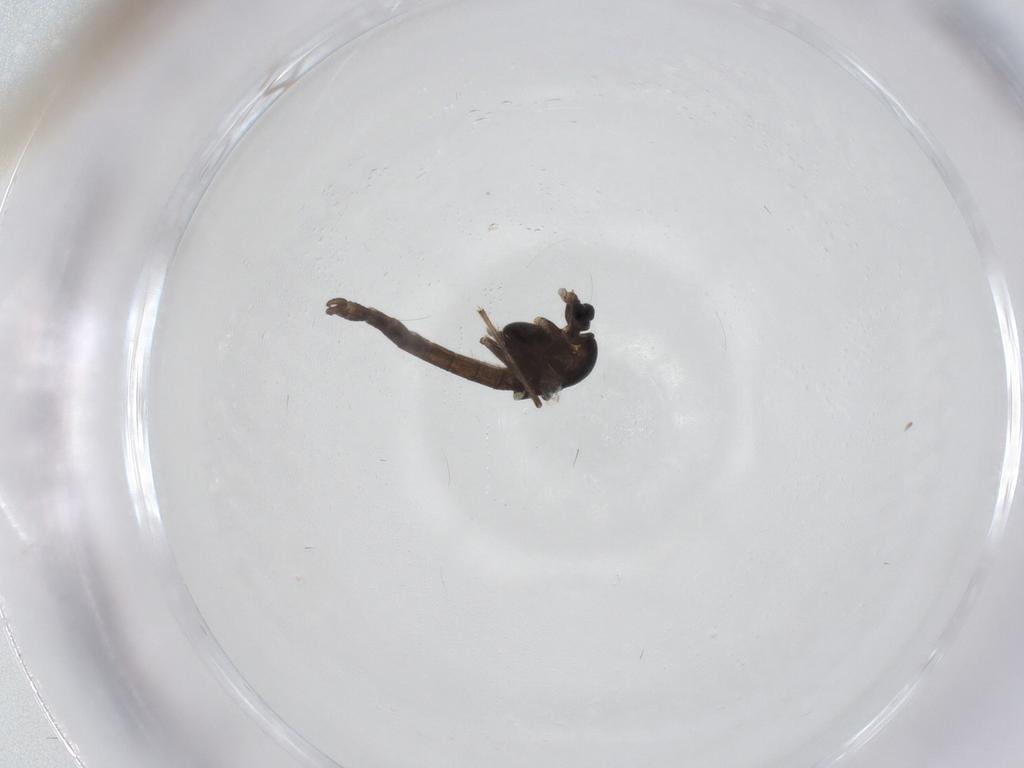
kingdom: Animalia
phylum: Arthropoda
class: Insecta
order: Diptera
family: Chironomidae
